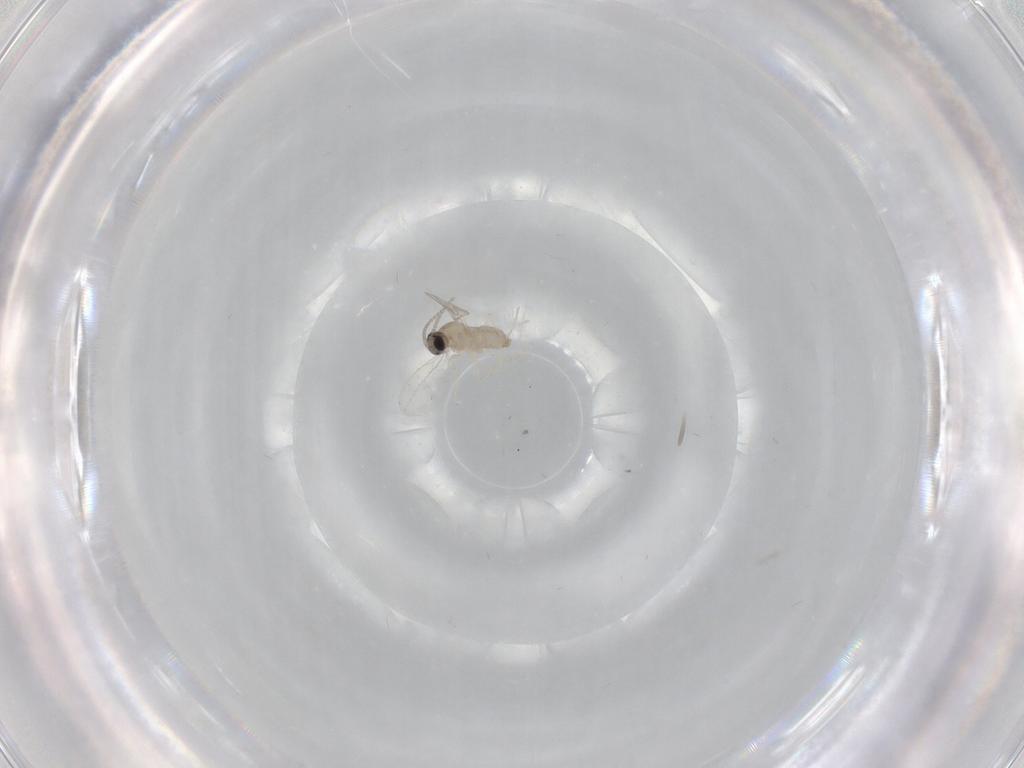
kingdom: Animalia
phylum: Arthropoda
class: Insecta
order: Diptera
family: Cecidomyiidae
